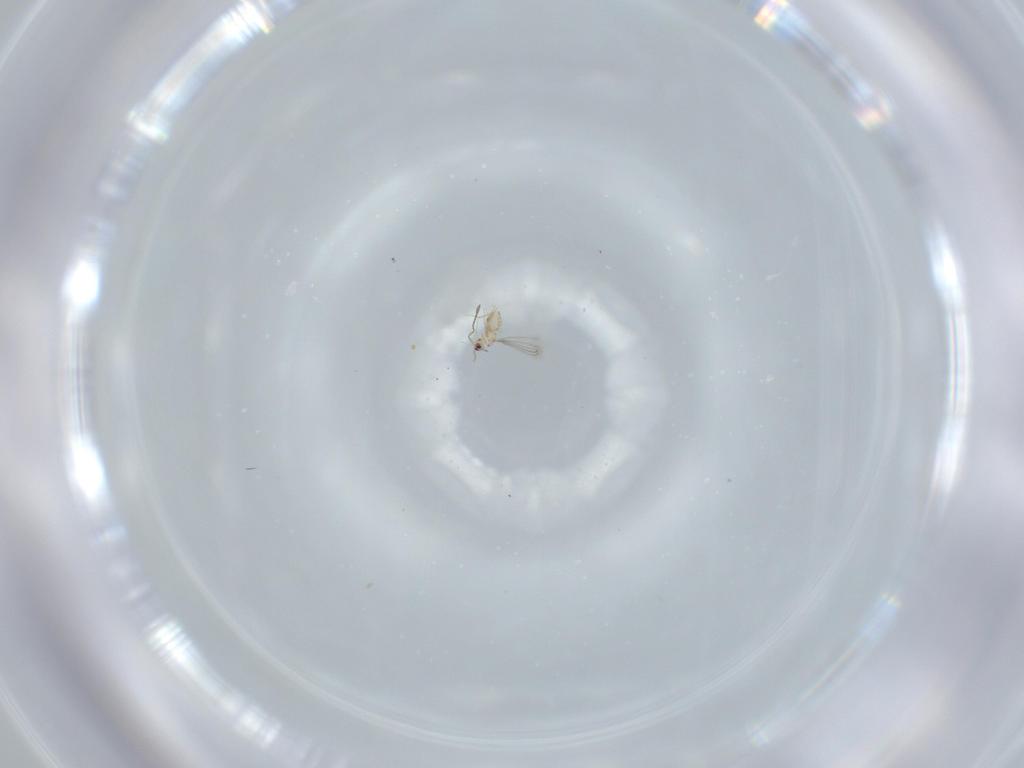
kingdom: Animalia
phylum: Arthropoda
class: Insecta
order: Hymenoptera
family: Mymaridae
